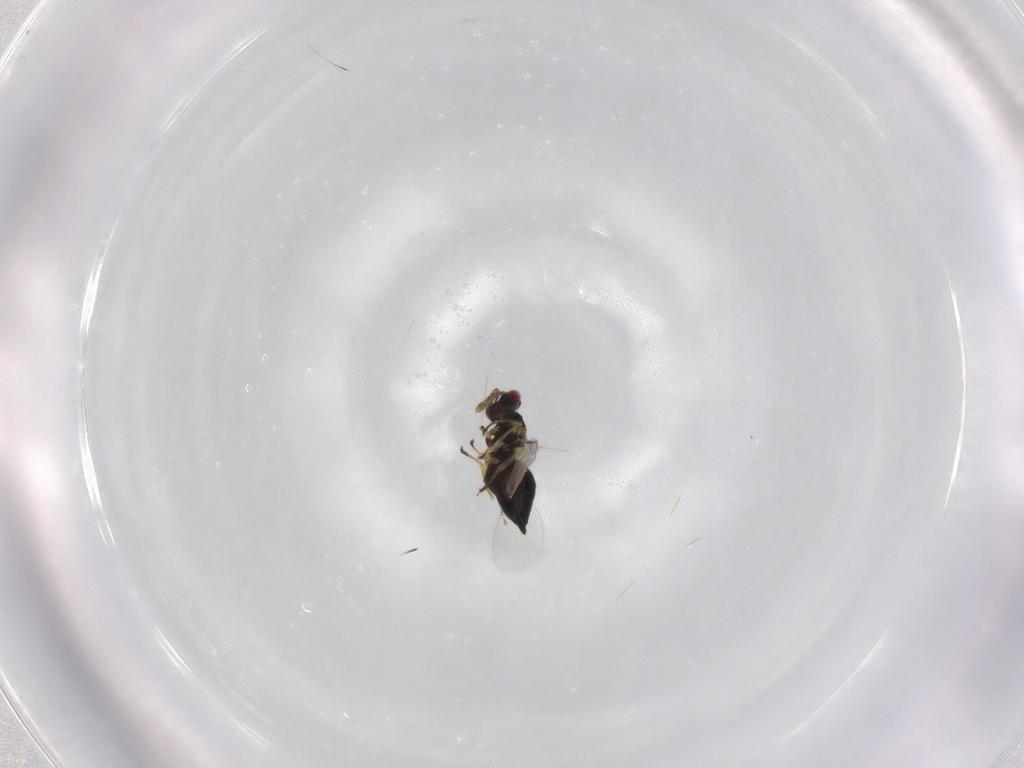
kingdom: Animalia
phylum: Arthropoda
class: Insecta
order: Hymenoptera
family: Eulophidae
